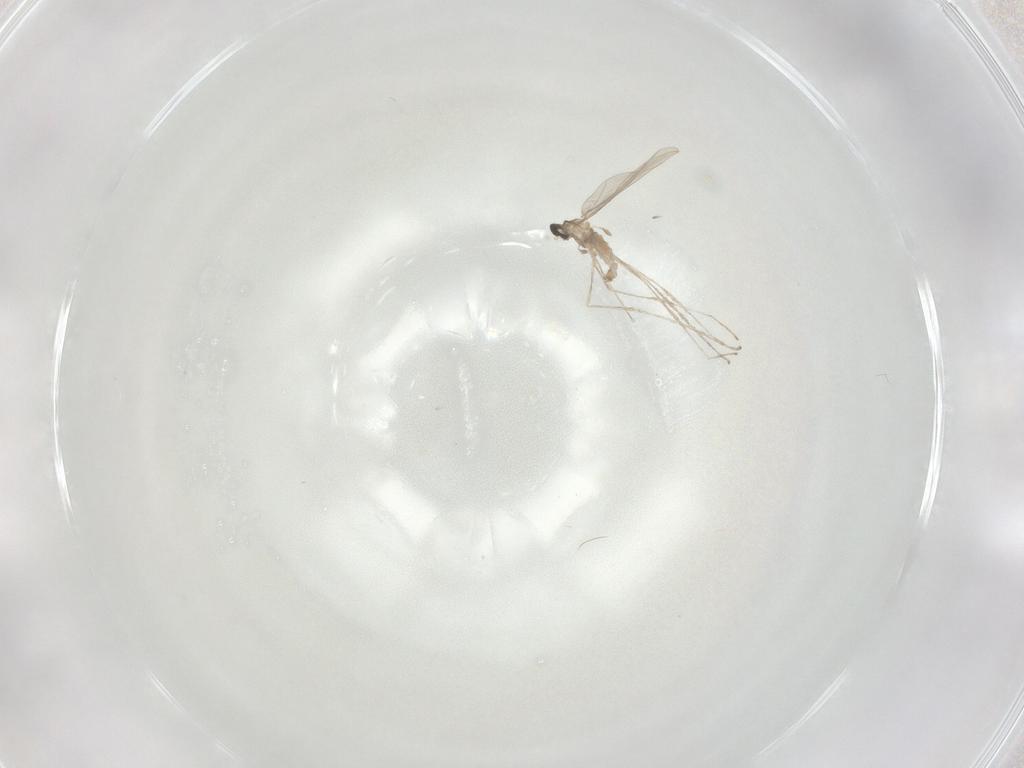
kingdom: Animalia
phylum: Arthropoda
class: Insecta
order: Diptera
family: Cecidomyiidae
